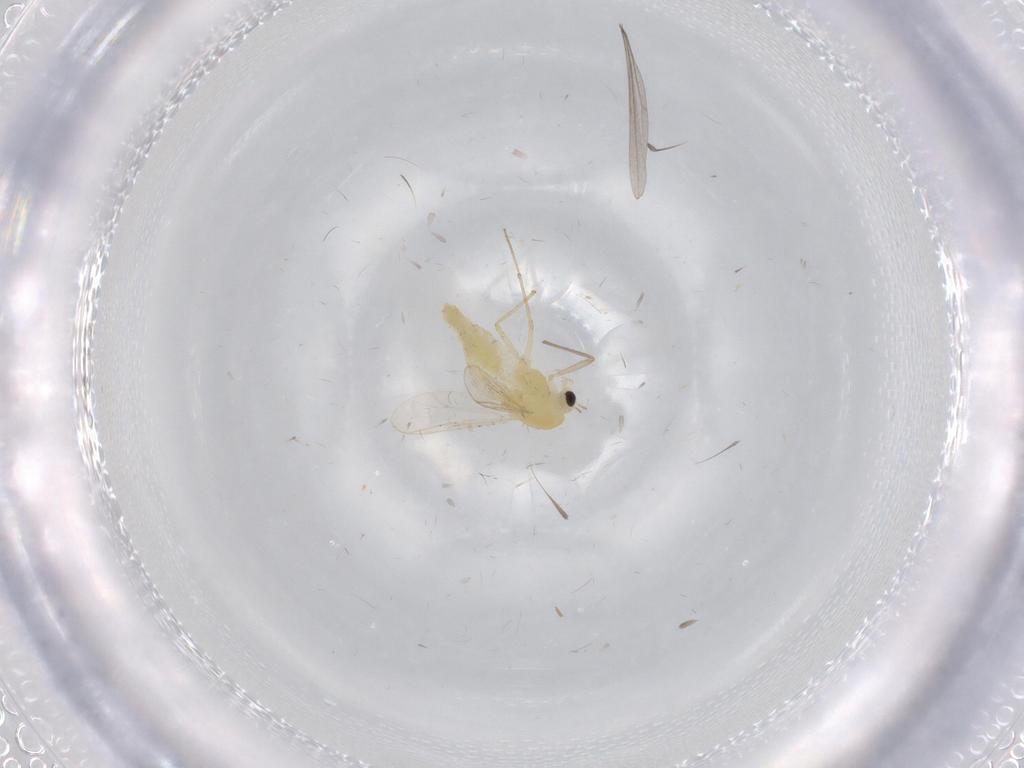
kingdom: Animalia
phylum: Arthropoda
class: Insecta
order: Diptera
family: Chironomidae
